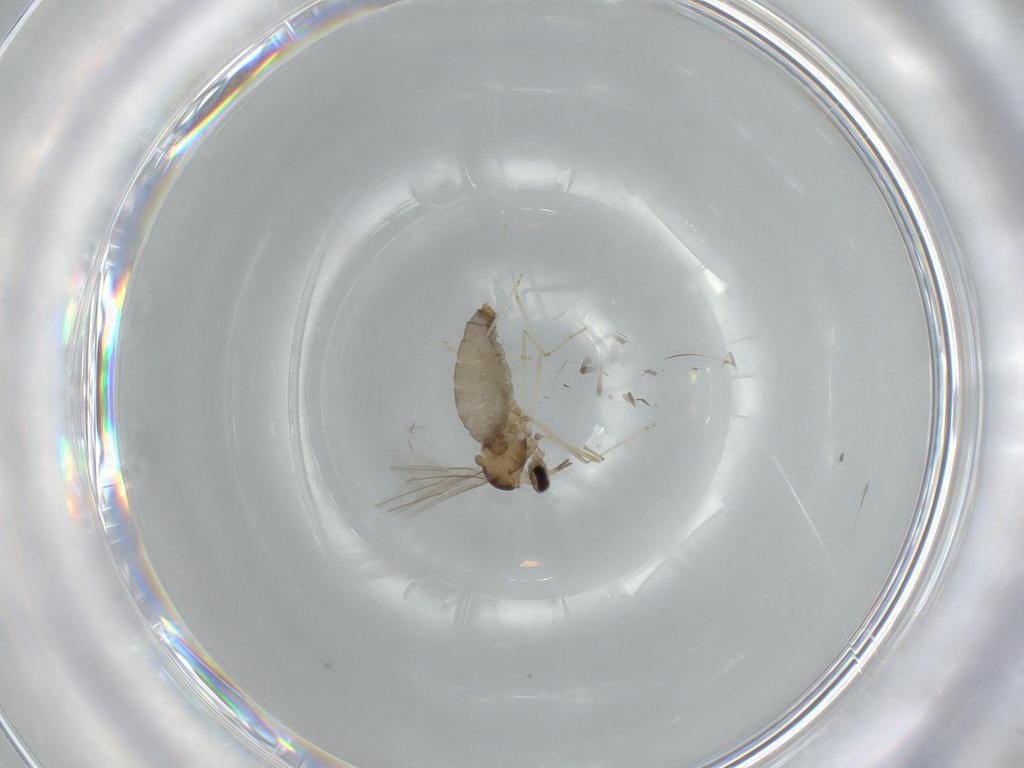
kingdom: Animalia
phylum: Arthropoda
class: Insecta
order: Diptera
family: Cecidomyiidae
